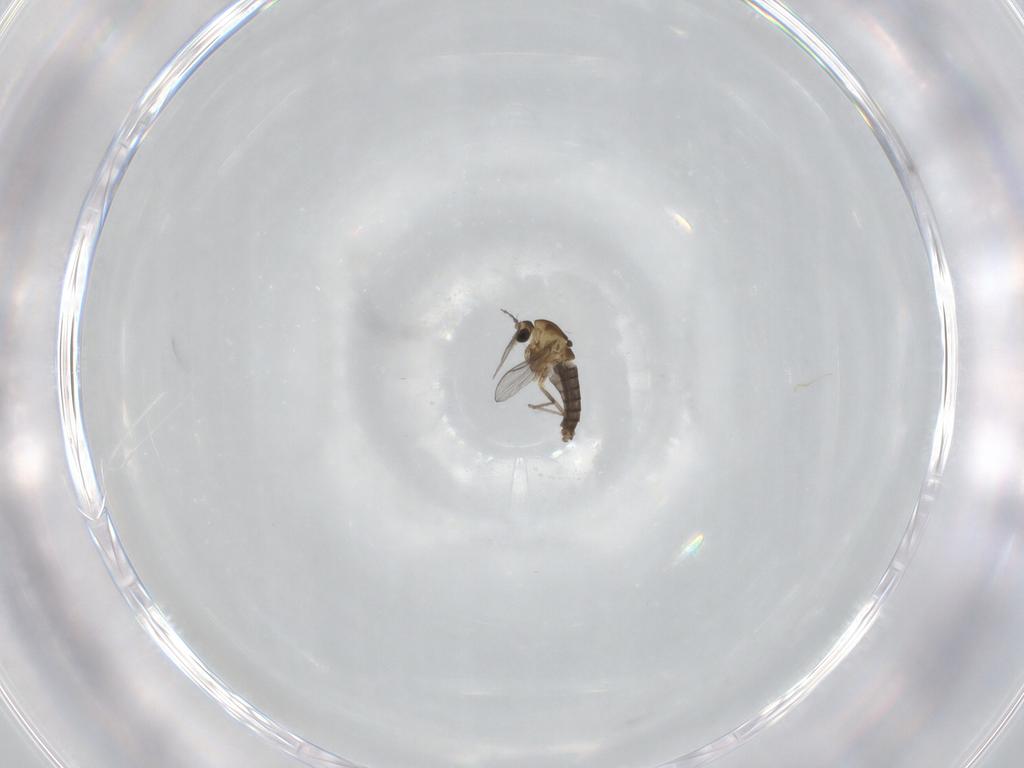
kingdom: Animalia
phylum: Arthropoda
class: Insecta
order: Diptera
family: Chironomidae
